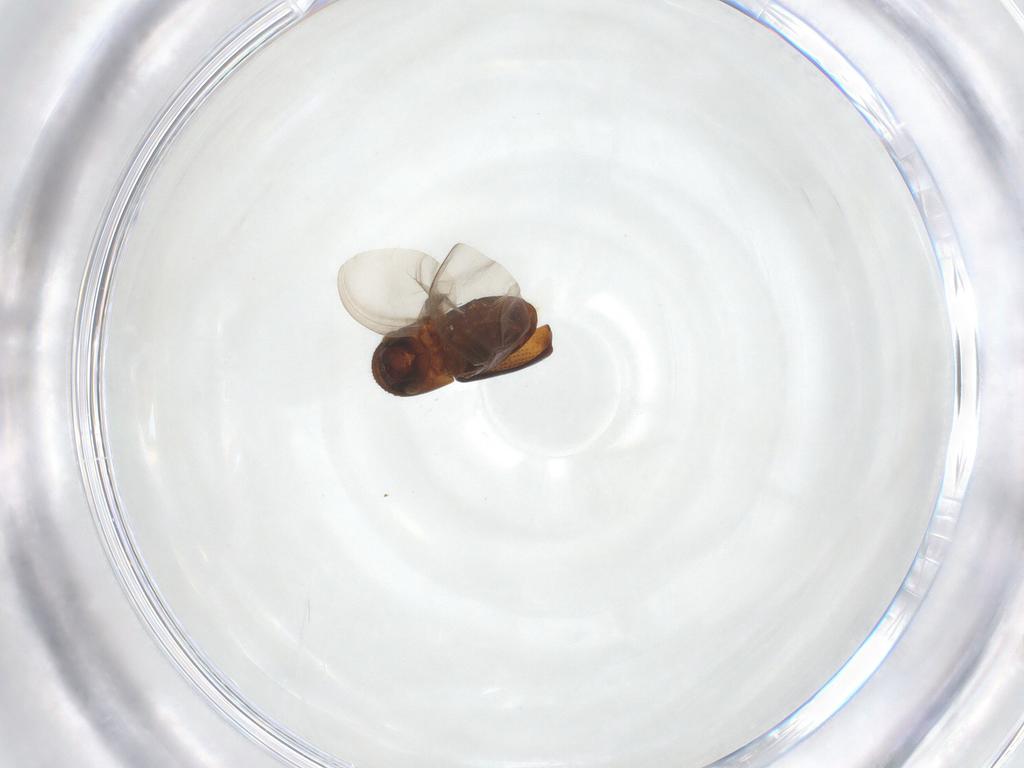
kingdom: Animalia
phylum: Arthropoda
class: Insecta
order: Coleoptera
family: Curculionidae
